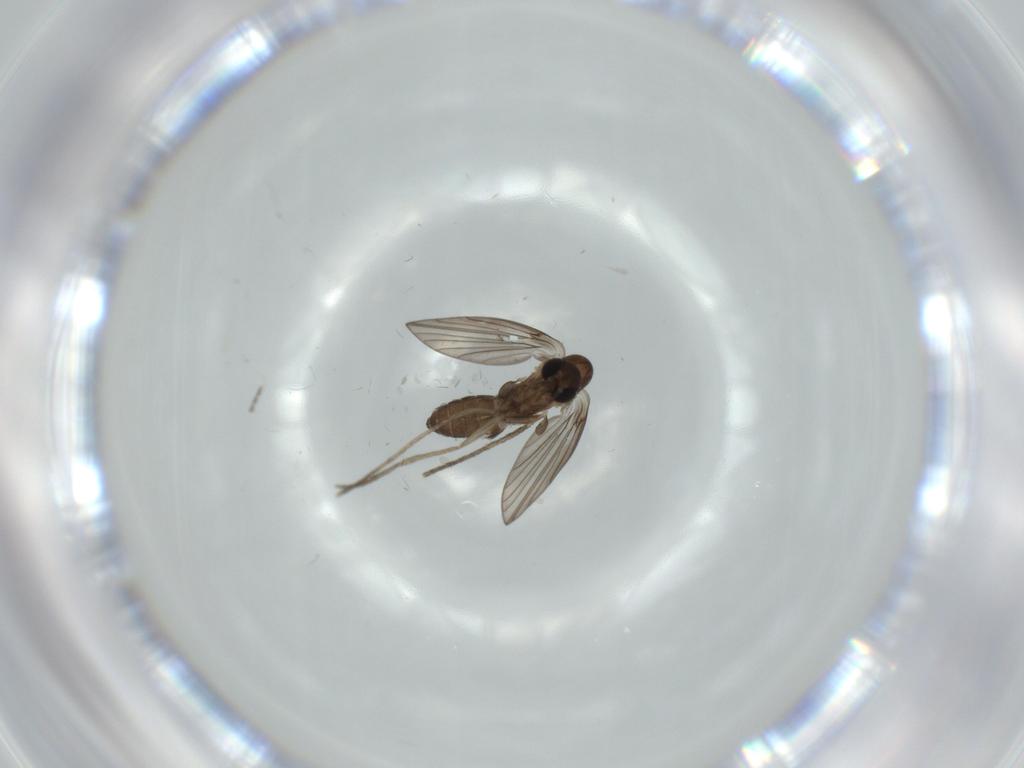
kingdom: Animalia
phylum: Arthropoda
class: Insecta
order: Diptera
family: Psychodidae
